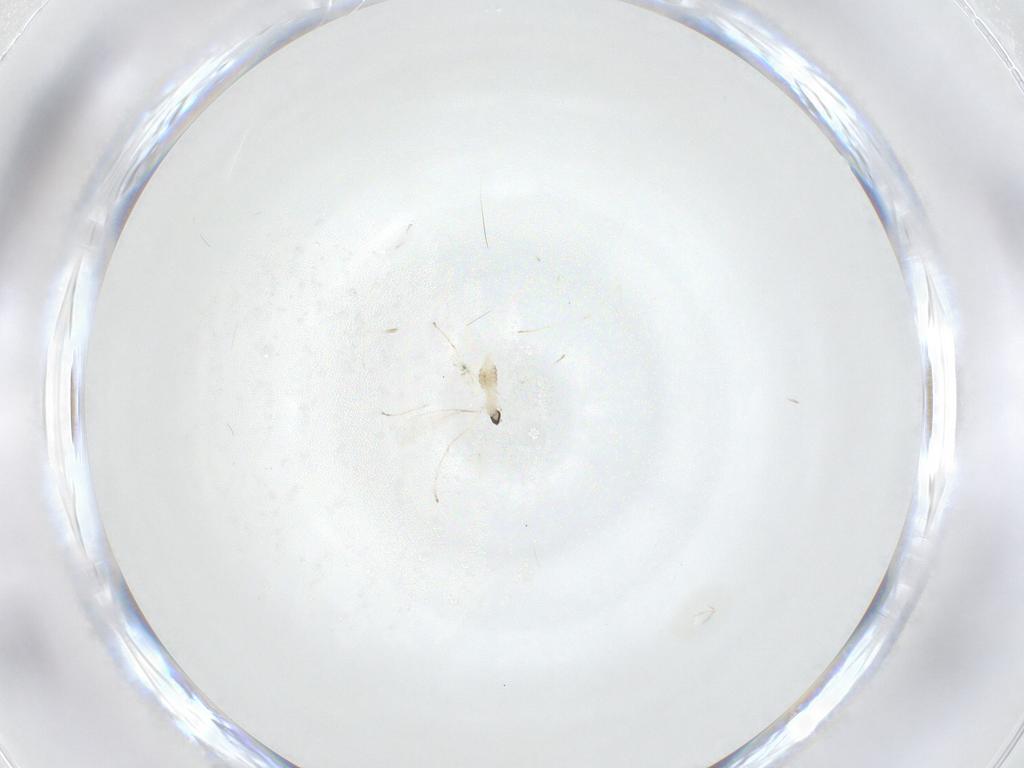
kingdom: Animalia
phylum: Arthropoda
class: Insecta
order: Diptera
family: Cecidomyiidae
